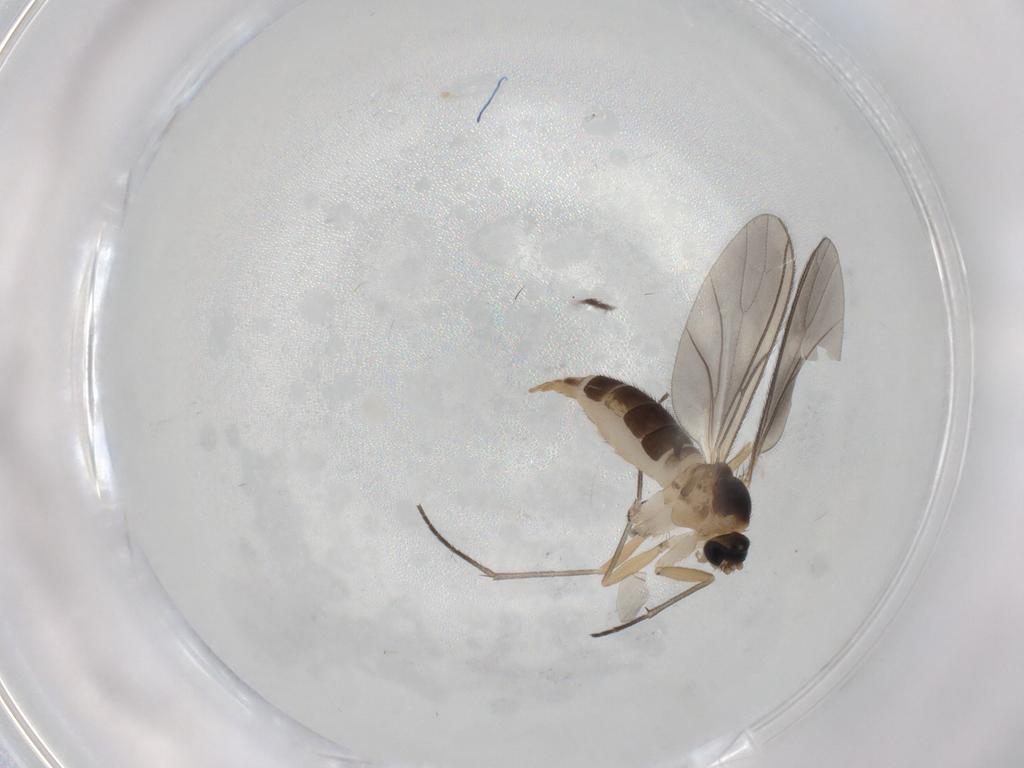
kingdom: Animalia
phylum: Arthropoda
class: Insecta
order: Diptera
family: Sciaridae
